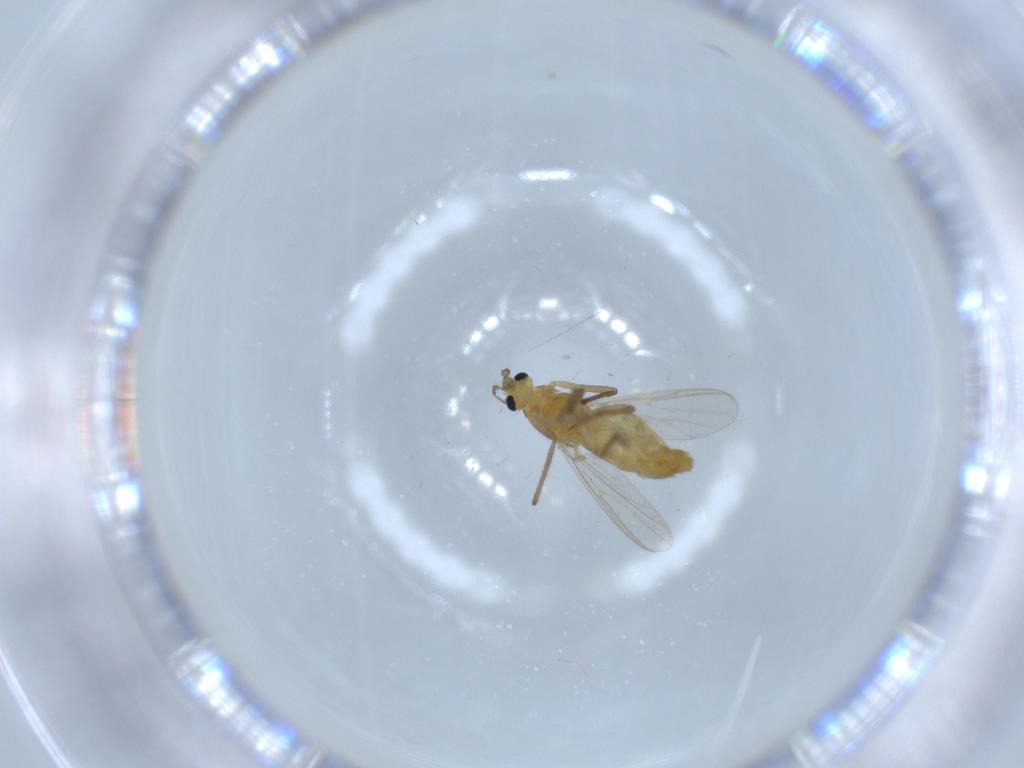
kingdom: Animalia
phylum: Arthropoda
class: Insecta
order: Diptera
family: Chironomidae
